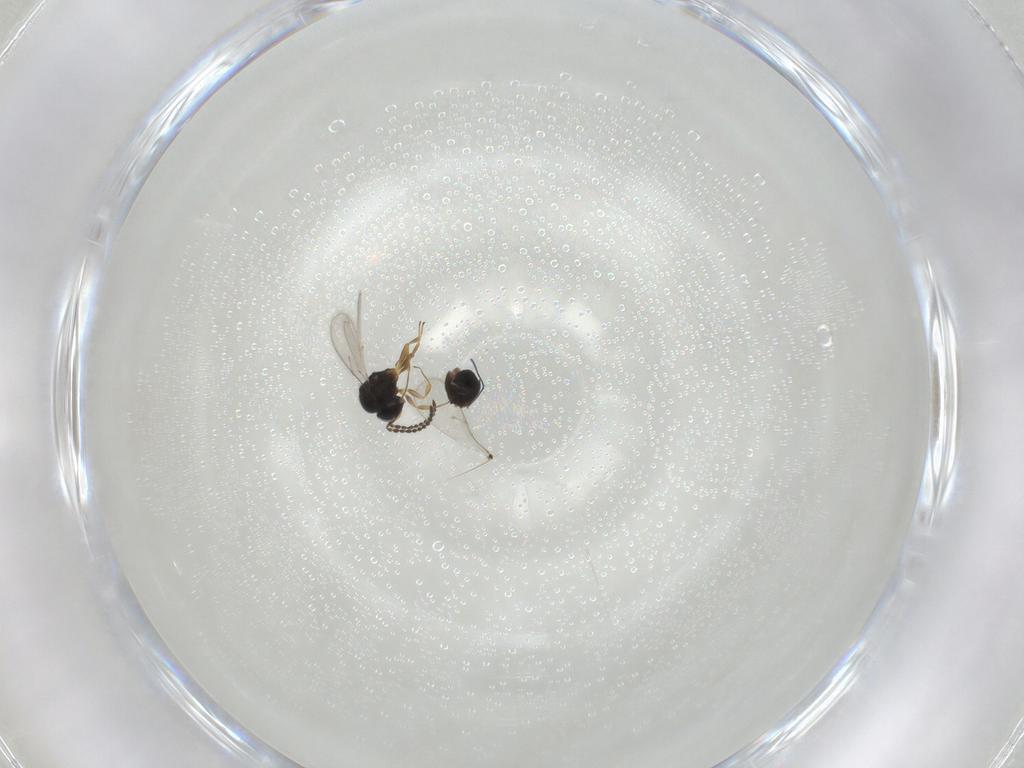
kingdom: Animalia
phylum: Arthropoda
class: Insecta
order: Hymenoptera
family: Scelionidae
